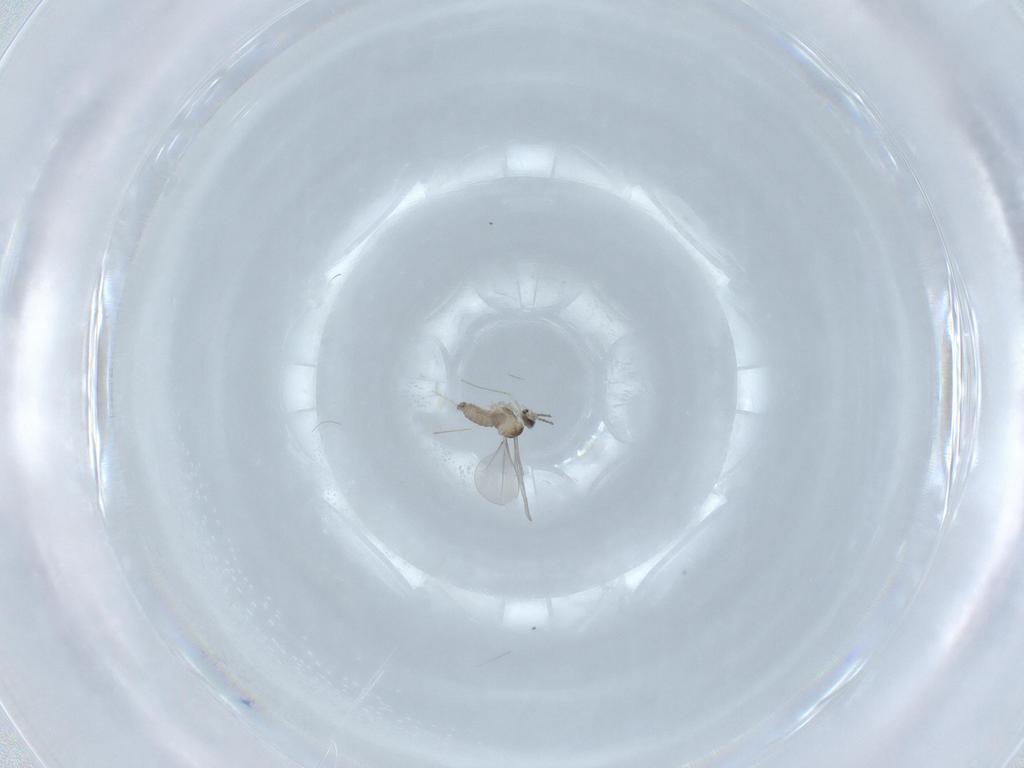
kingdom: Animalia
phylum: Arthropoda
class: Insecta
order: Diptera
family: Cecidomyiidae
